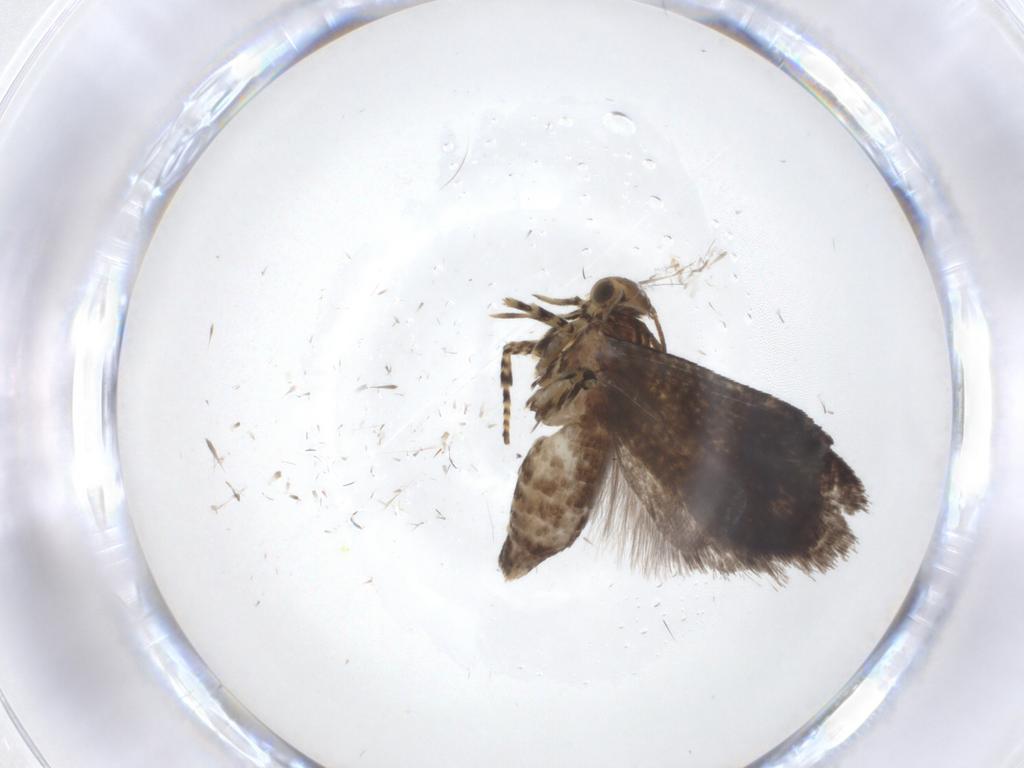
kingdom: Animalia
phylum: Arthropoda
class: Insecta
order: Lepidoptera
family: Geometridae
